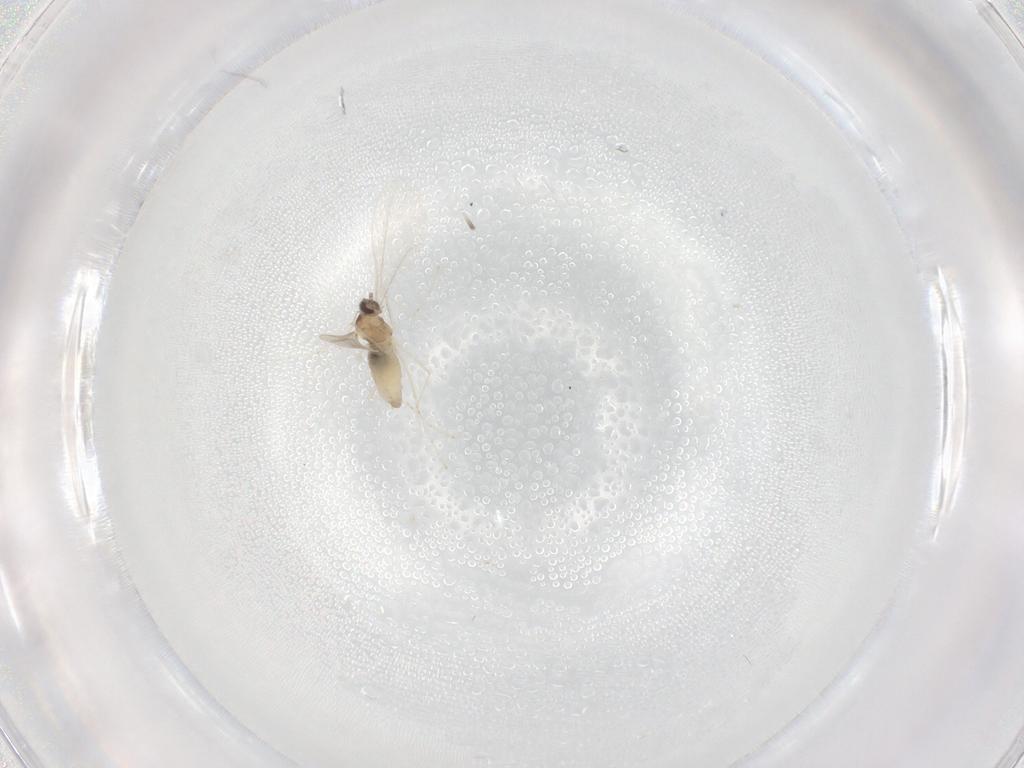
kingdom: Animalia
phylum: Arthropoda
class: Insecta
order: Diptera
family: Cecidomyiidae
